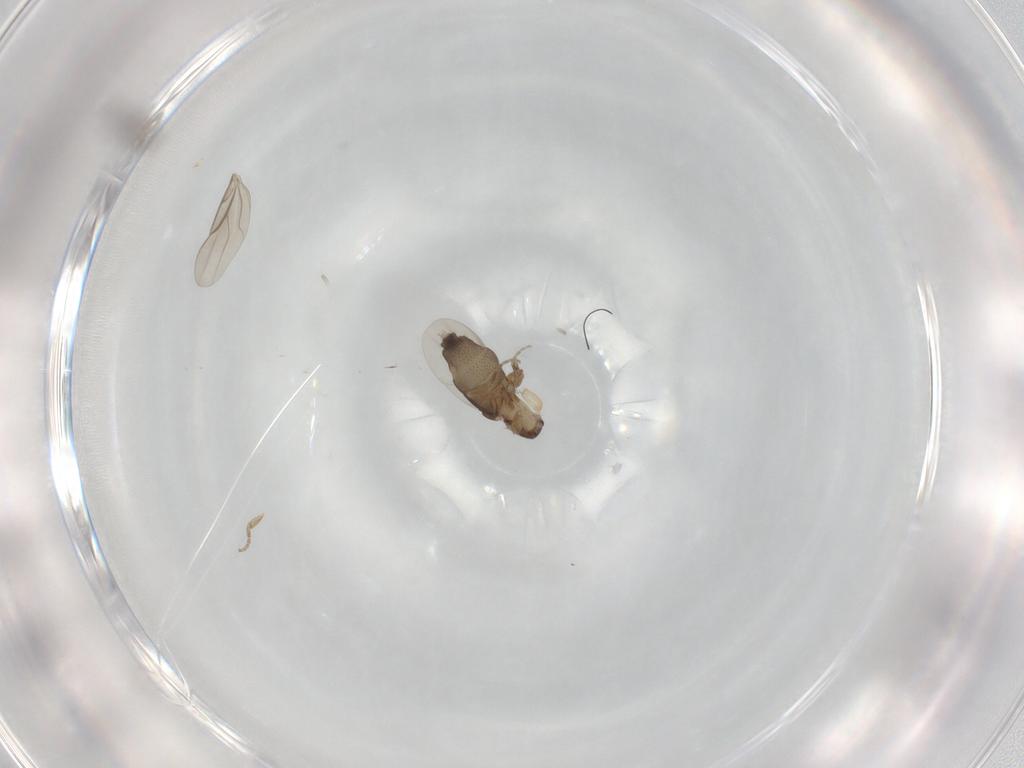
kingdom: Animalia
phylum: Arthropoda
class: Insecta
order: Diptera
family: Phoridae
